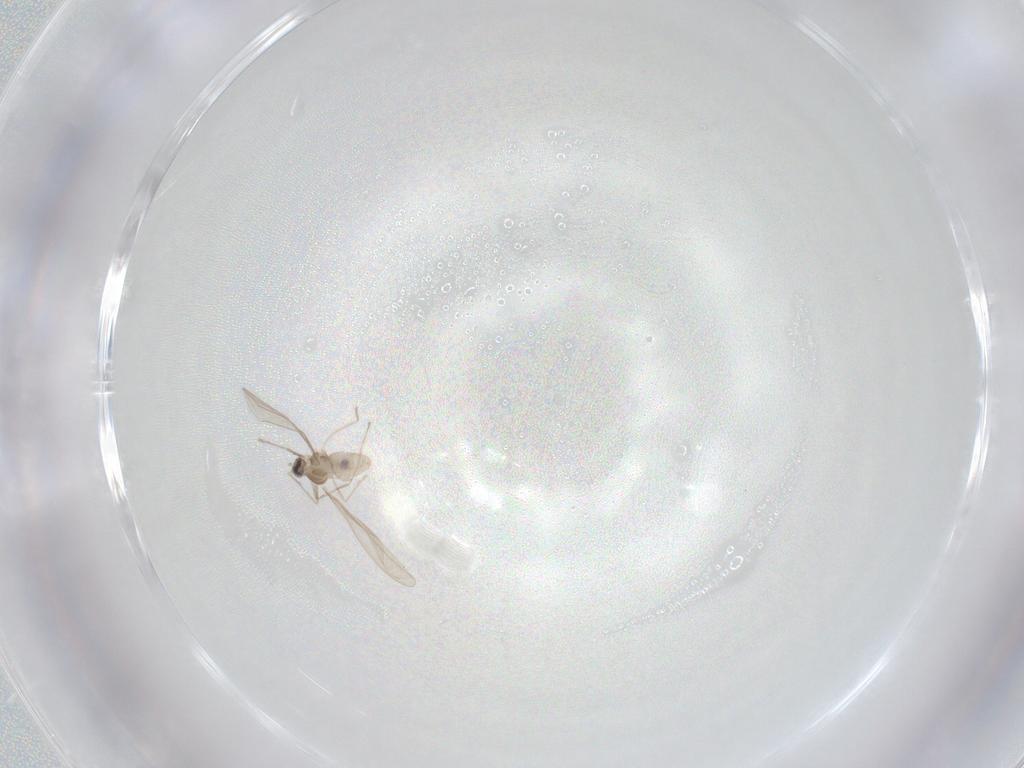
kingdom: Animalia
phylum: Arthropoda
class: Insecta
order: Diptera
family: Cecidomyiidae
